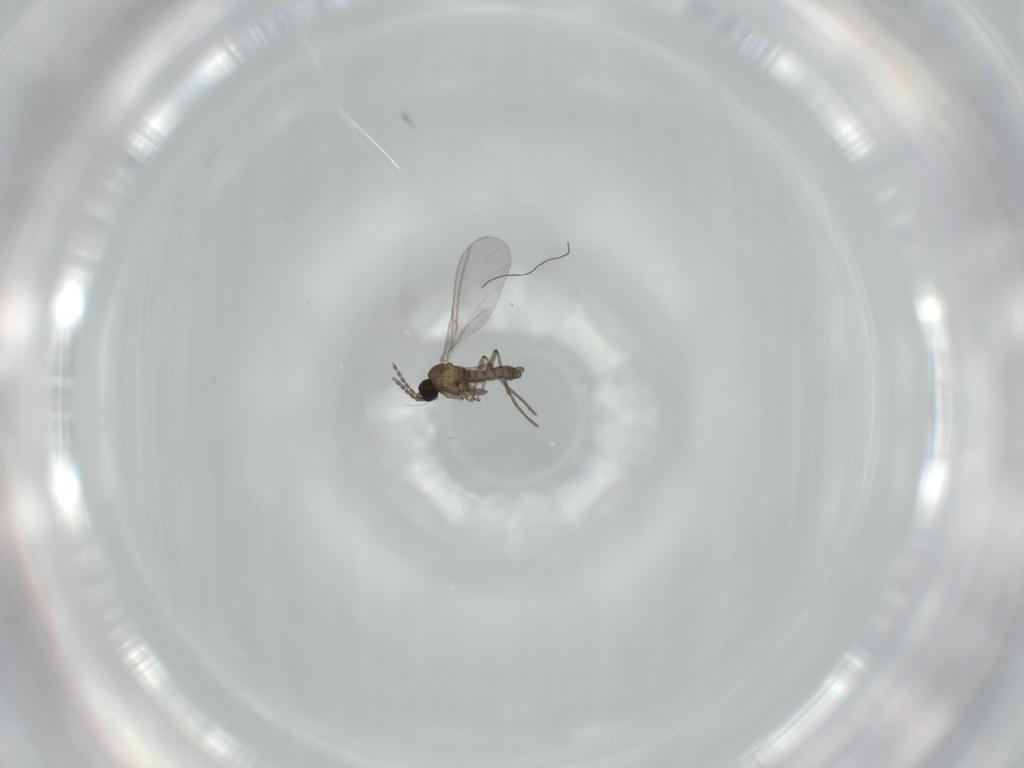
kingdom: Animalia
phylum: Arthropoda
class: Insecta
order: Diptera
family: Sciaridae
